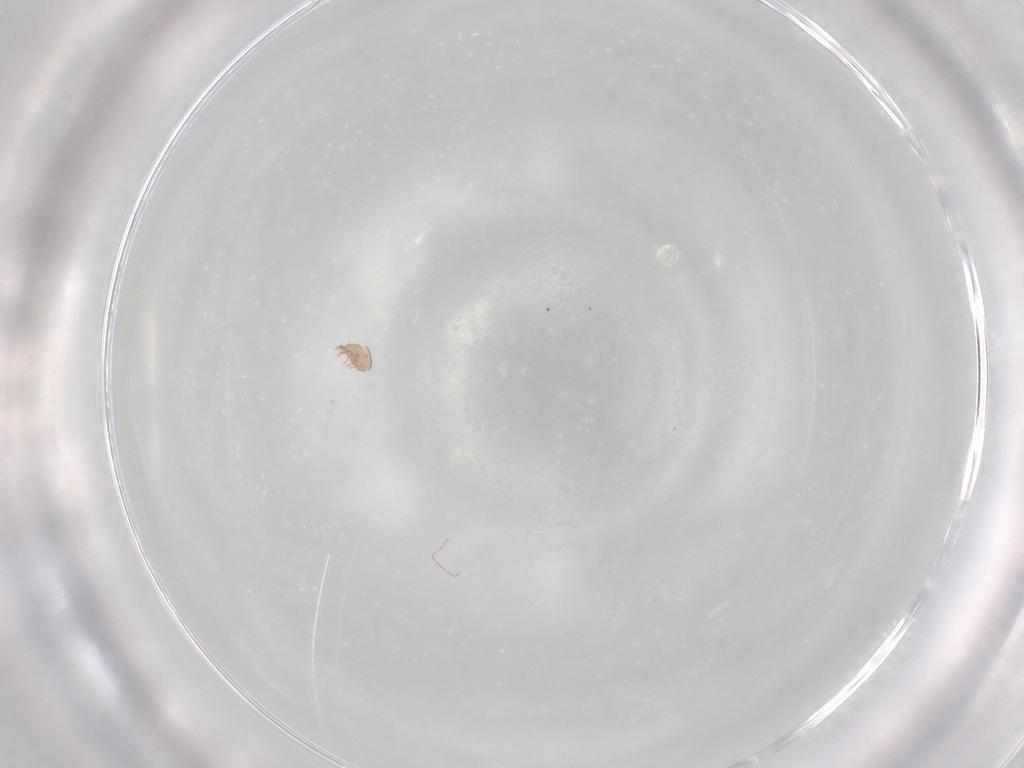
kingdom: Animalia
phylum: Arthropoda
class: Arachnida
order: Sarcoptiformes
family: Eremaeidae
